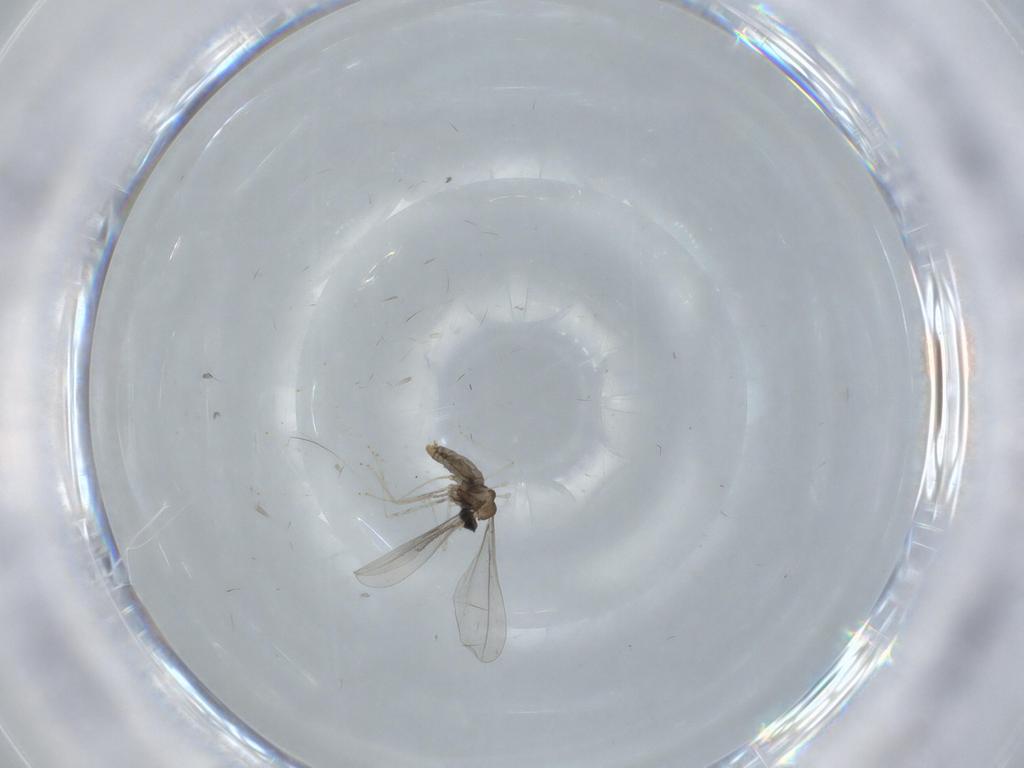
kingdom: Animalia
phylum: Arthropoda
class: Insecta
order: Diptera
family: Cecidomyiidae
